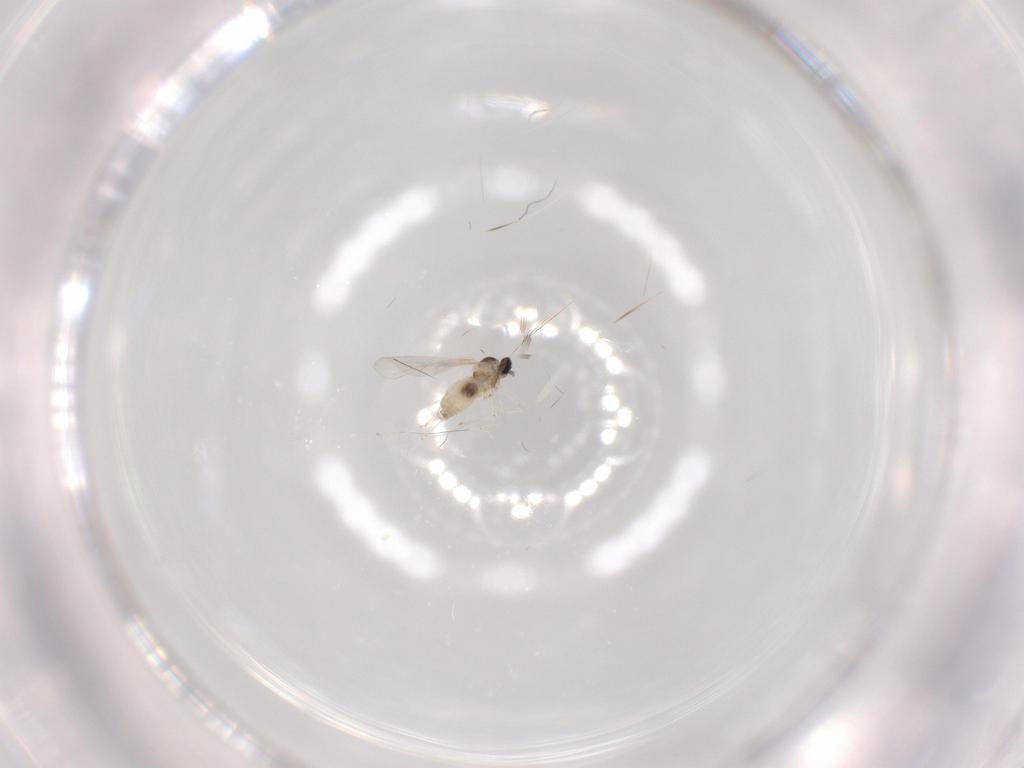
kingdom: Animalia
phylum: Arthropoda
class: Insecta
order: Diptera
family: Cecidomyiidae
